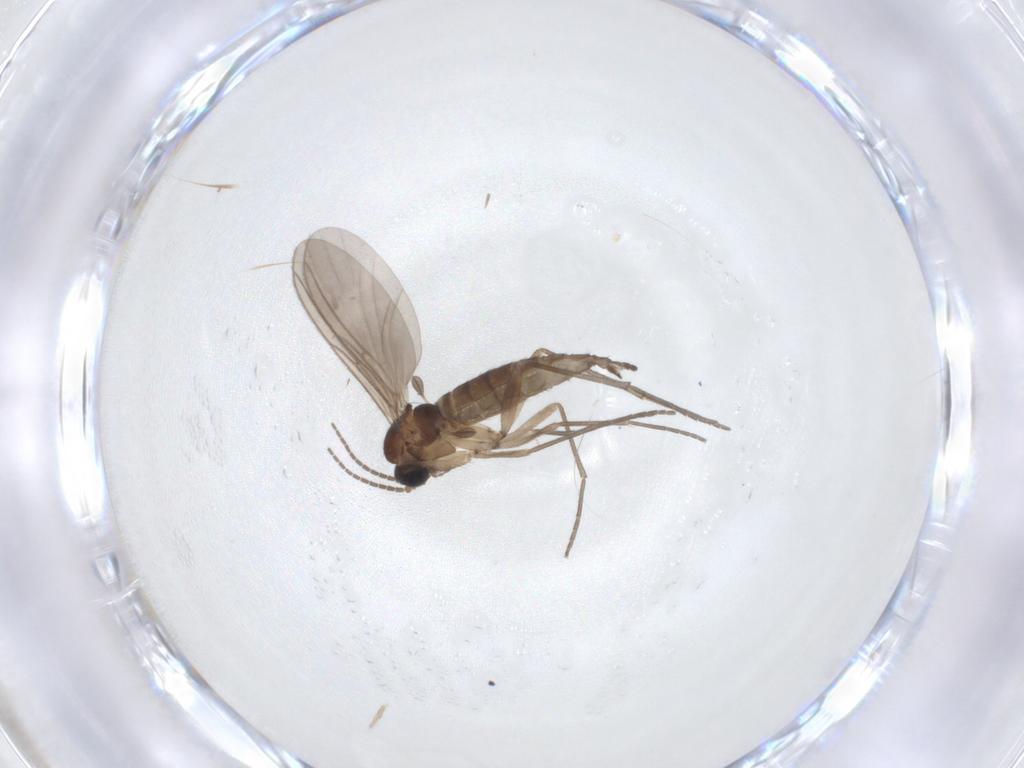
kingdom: Animalia
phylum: Arthropoda
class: Insecta
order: Diptera
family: Sciaridae
